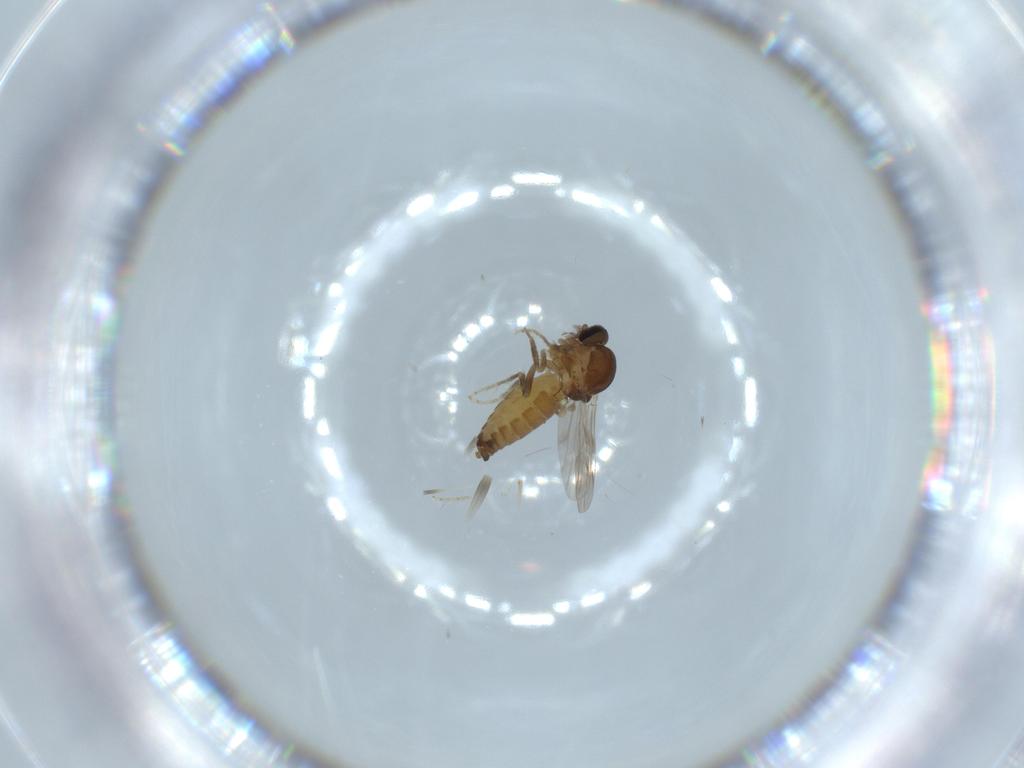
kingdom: Animalia
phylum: Arthropoda
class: Insecta
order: Diptera
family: Ceratopogonidae
